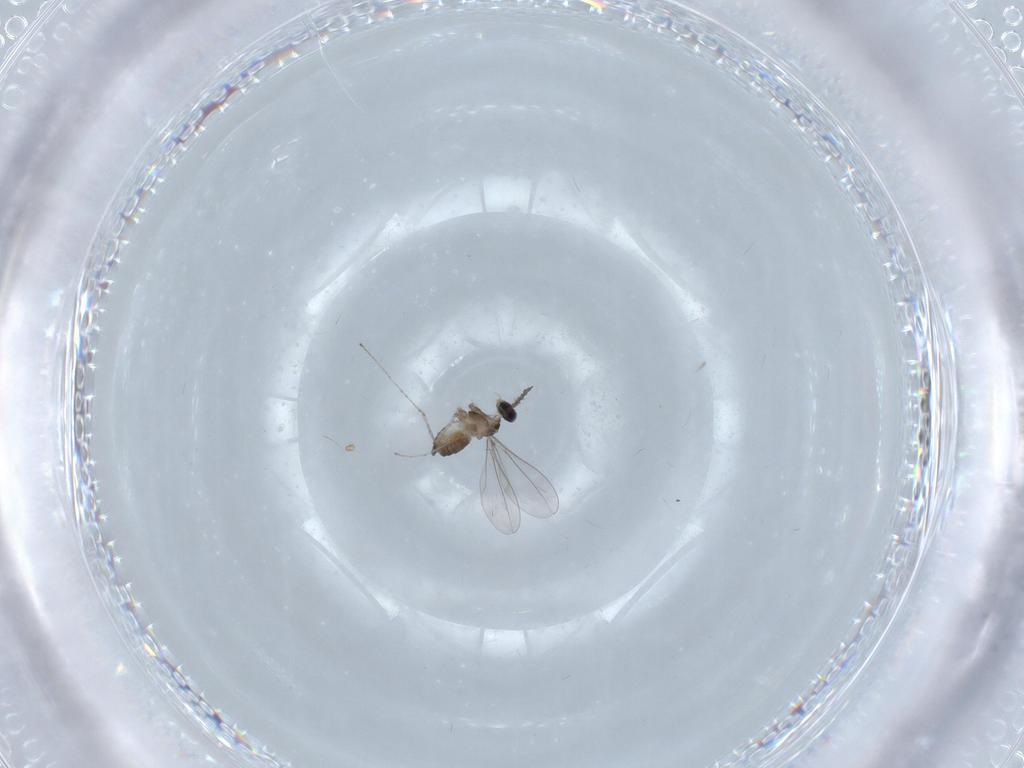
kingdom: Animalia
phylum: Arthropoda
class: Insecta
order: Diptera
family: Cecidomyiidae
